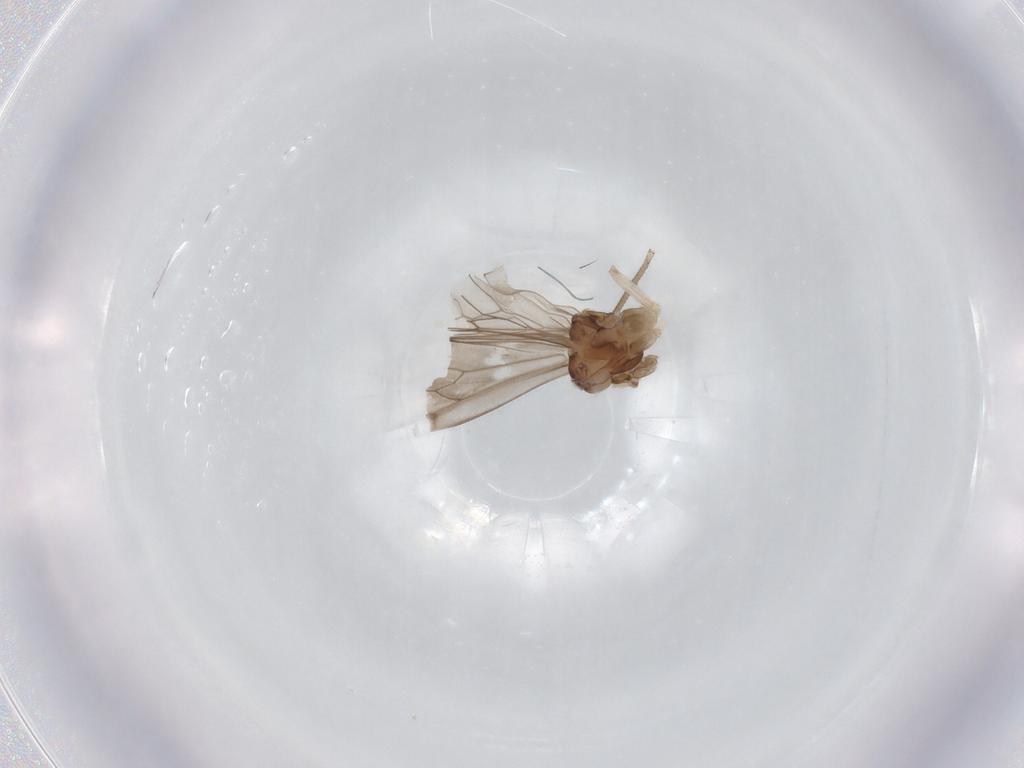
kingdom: Animalia
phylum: Arthropoda
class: Insecta
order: Psocodea
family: Peripsocidae
